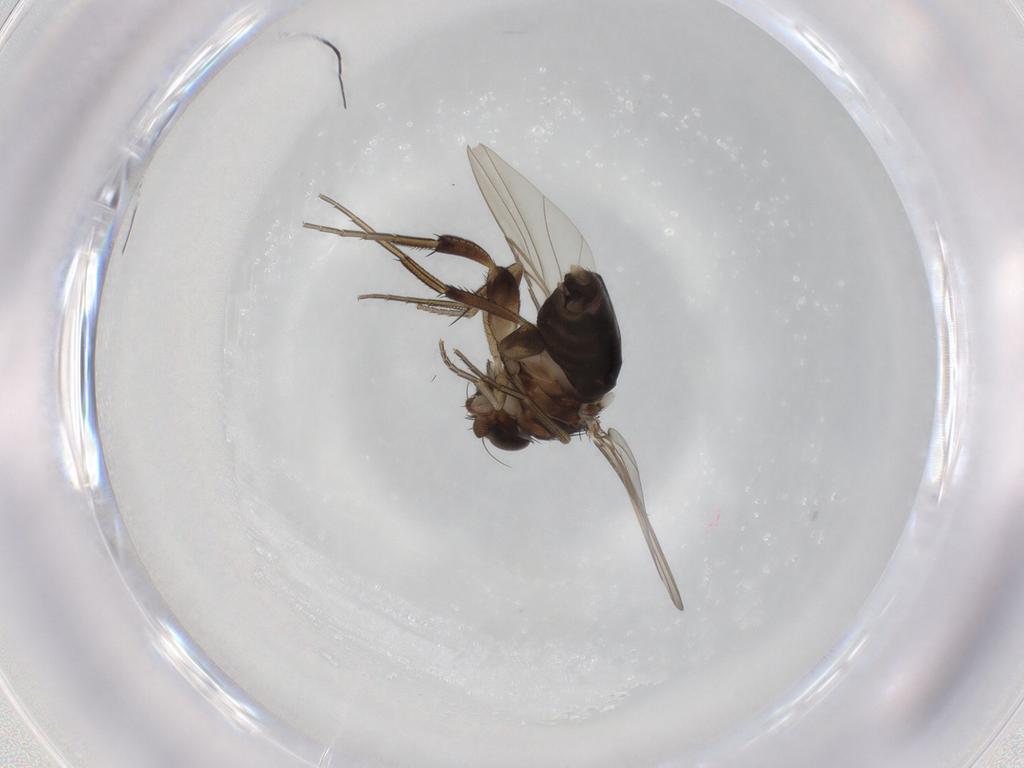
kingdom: Animalia
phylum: Arthropoda
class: Insecta
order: Diptera
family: Phoridae
